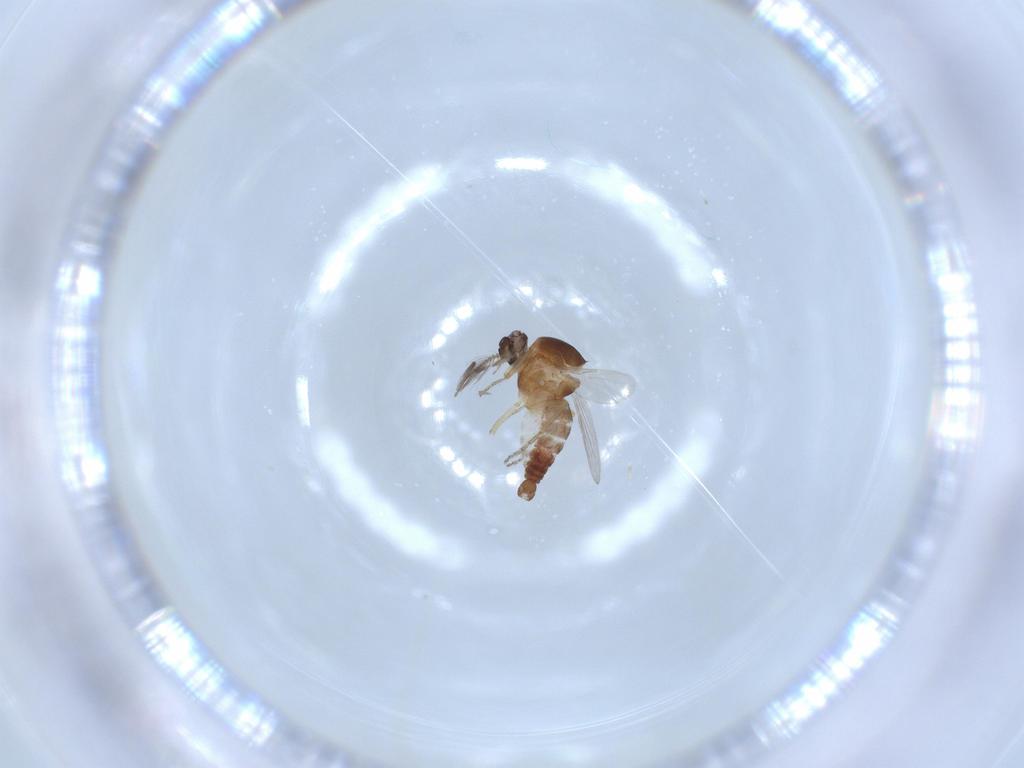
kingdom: Animalia
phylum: Arthropoda
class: Insecta
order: Diptera
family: Ceratopogonidae
